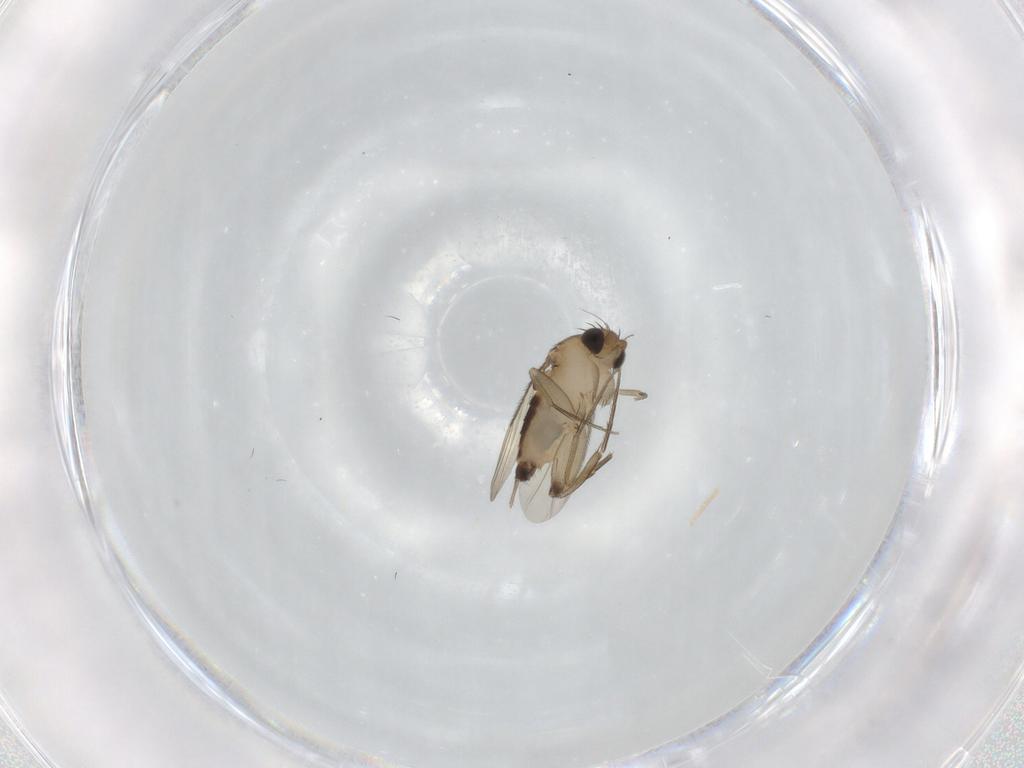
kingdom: Animalia
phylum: Arthropoda
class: Insecta
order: Diptera
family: Phoridae
